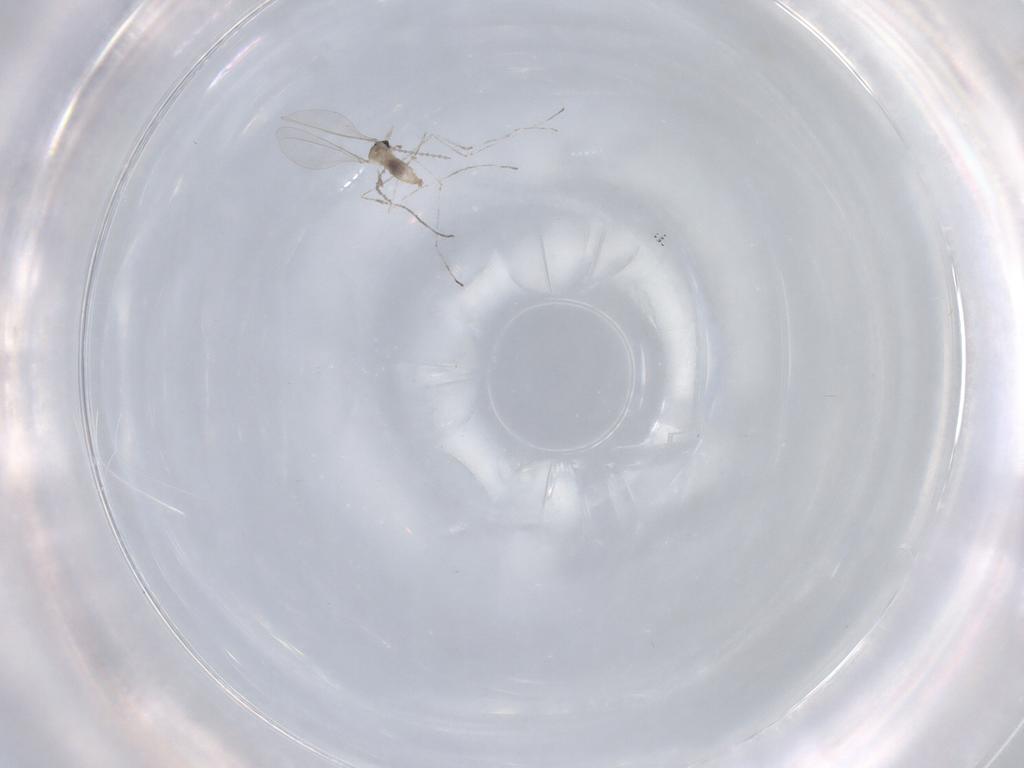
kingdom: Animalia
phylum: Arthropoda
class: Insecta
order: Diptera
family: Cecidomyiidae
